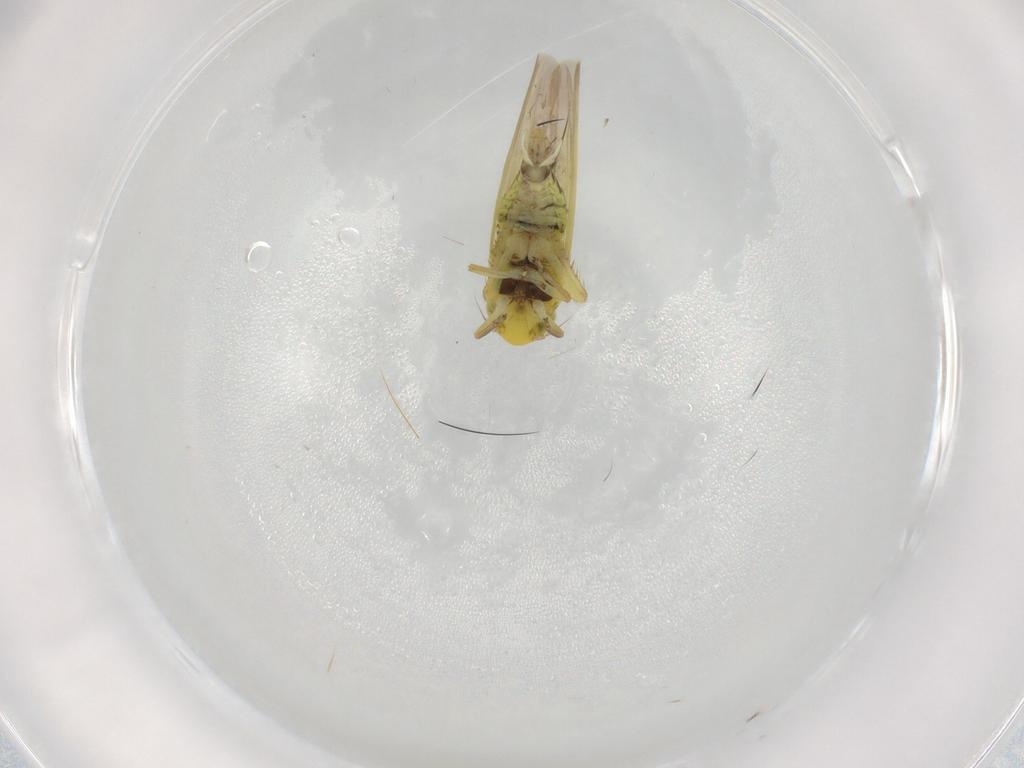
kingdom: Animalia
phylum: Arthropoda
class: Insecta
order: Hemiptera
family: Cicadellidae
